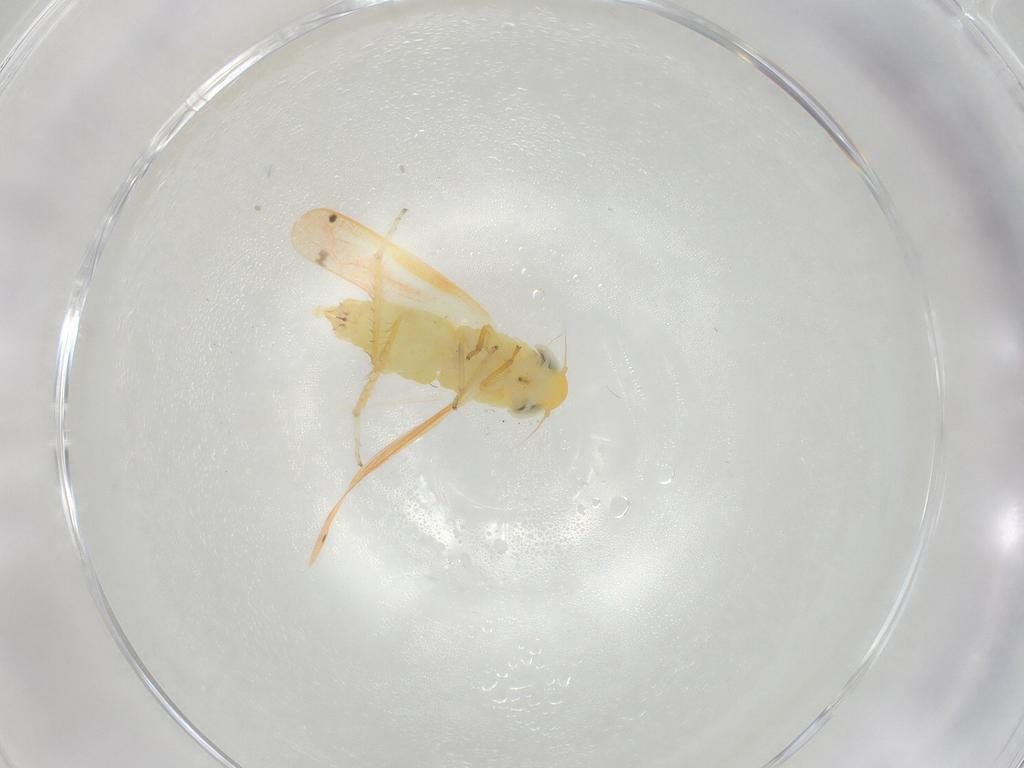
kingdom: Animalia
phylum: Arthropoda
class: Insecta
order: Hemiptera
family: Cicadellidae
